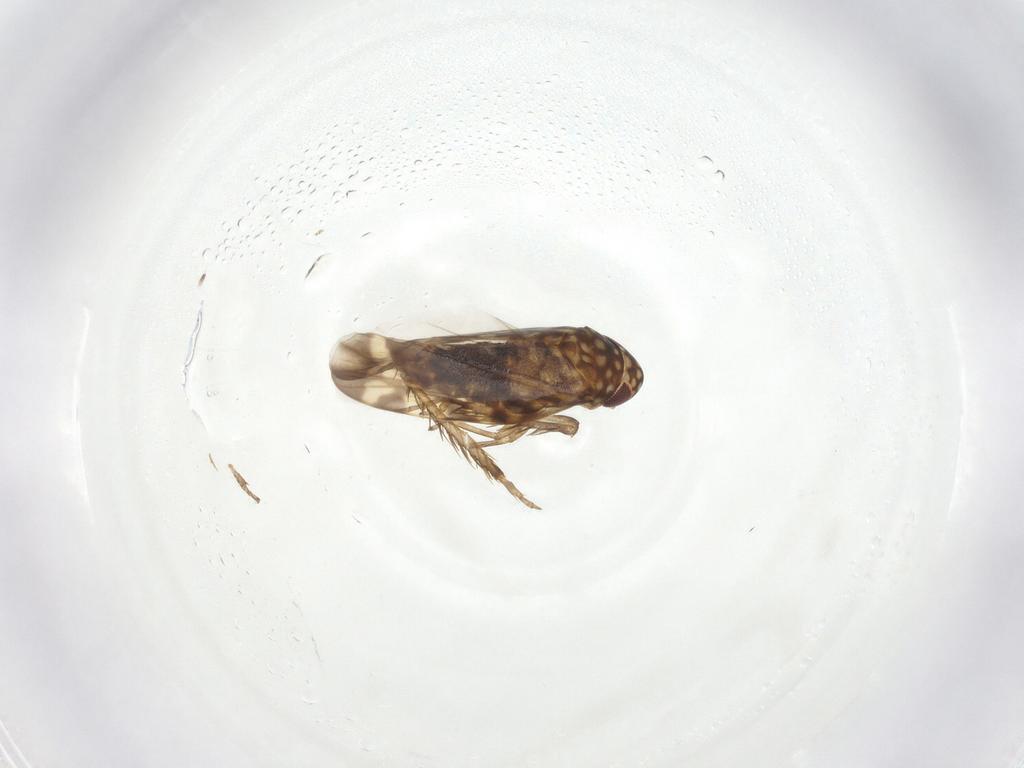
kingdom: Animalia
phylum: Arthropoda
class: Insecta
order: Hemiptera
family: Cicadellidae
